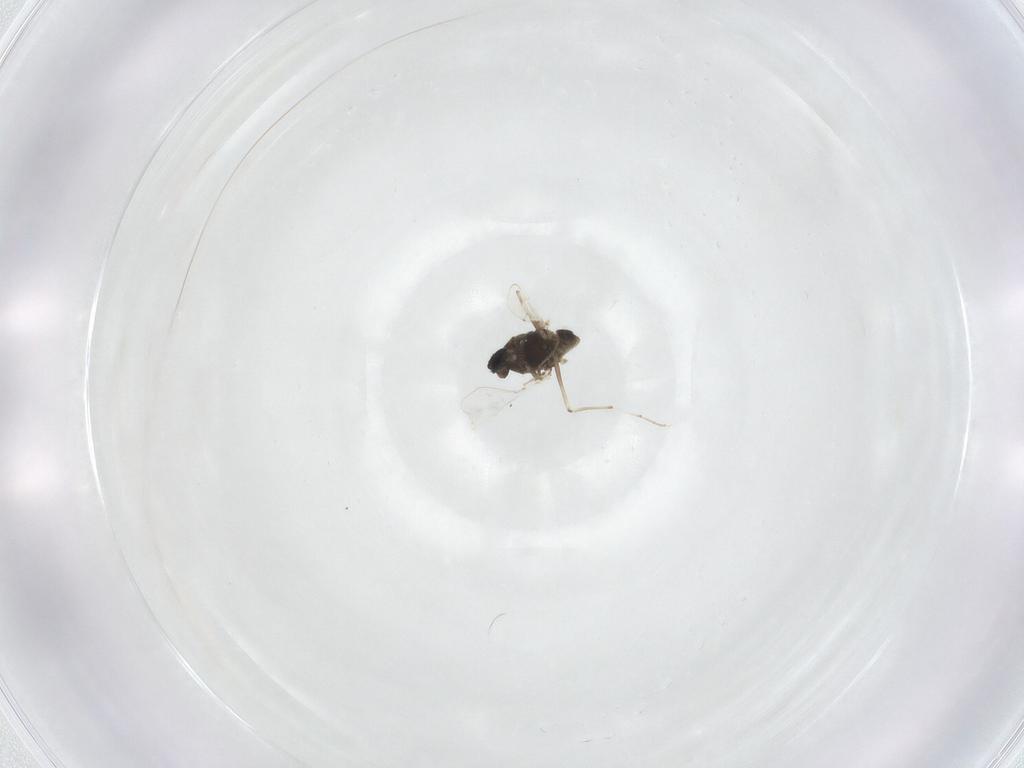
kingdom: Animalia
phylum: Arthropoda
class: Insecta
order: Diptera
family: Chironomidae
